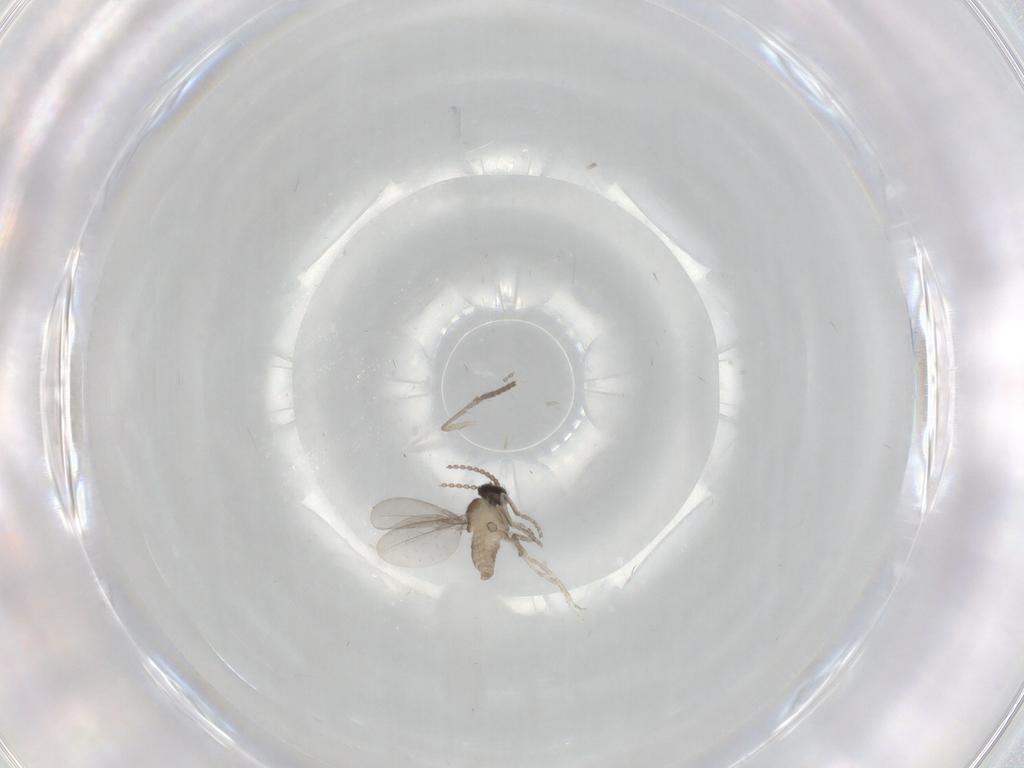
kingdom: Animalia
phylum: Arthropoda
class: Insecta
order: Diptera
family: Cecidomyiidae
